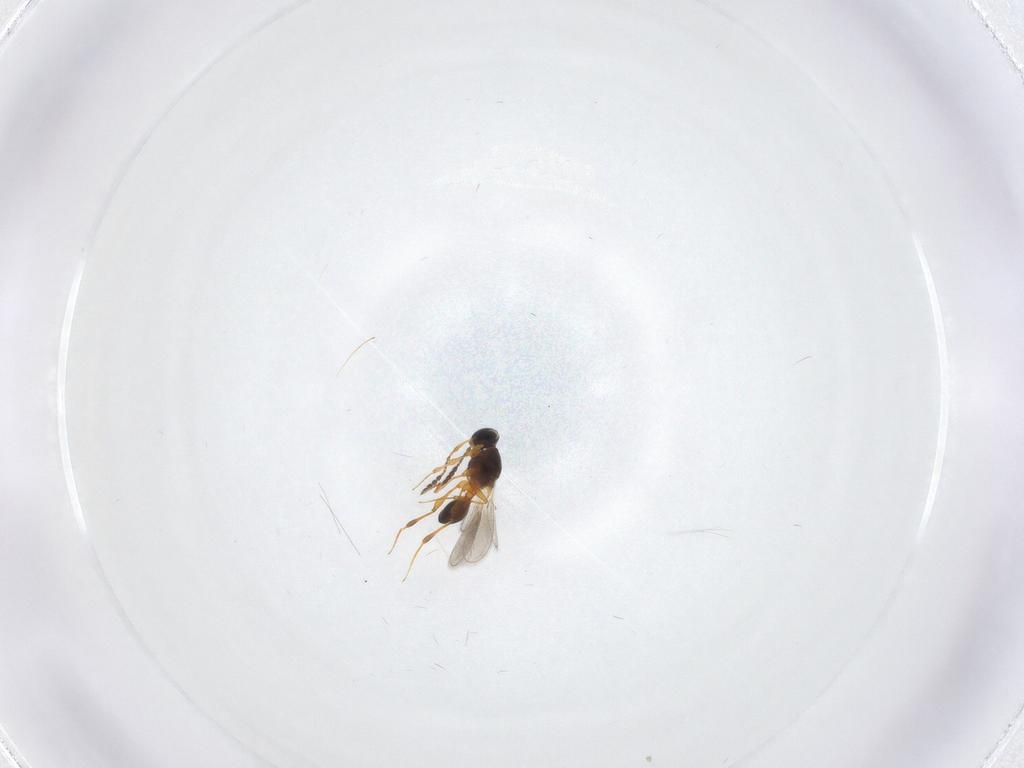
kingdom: Animalia
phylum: Arthropoda
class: Insecta
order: Hymenoptera
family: Platygastridae
